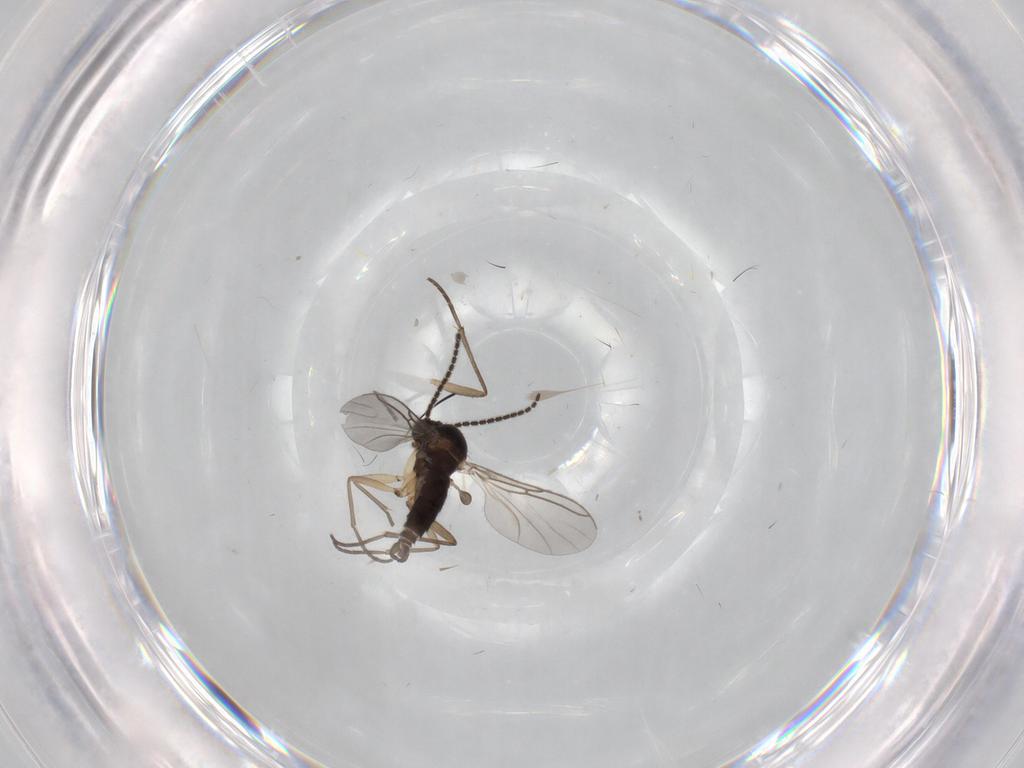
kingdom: Animalia
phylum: Arthropoda
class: Insecta
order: Diptera
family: Sciaridae
